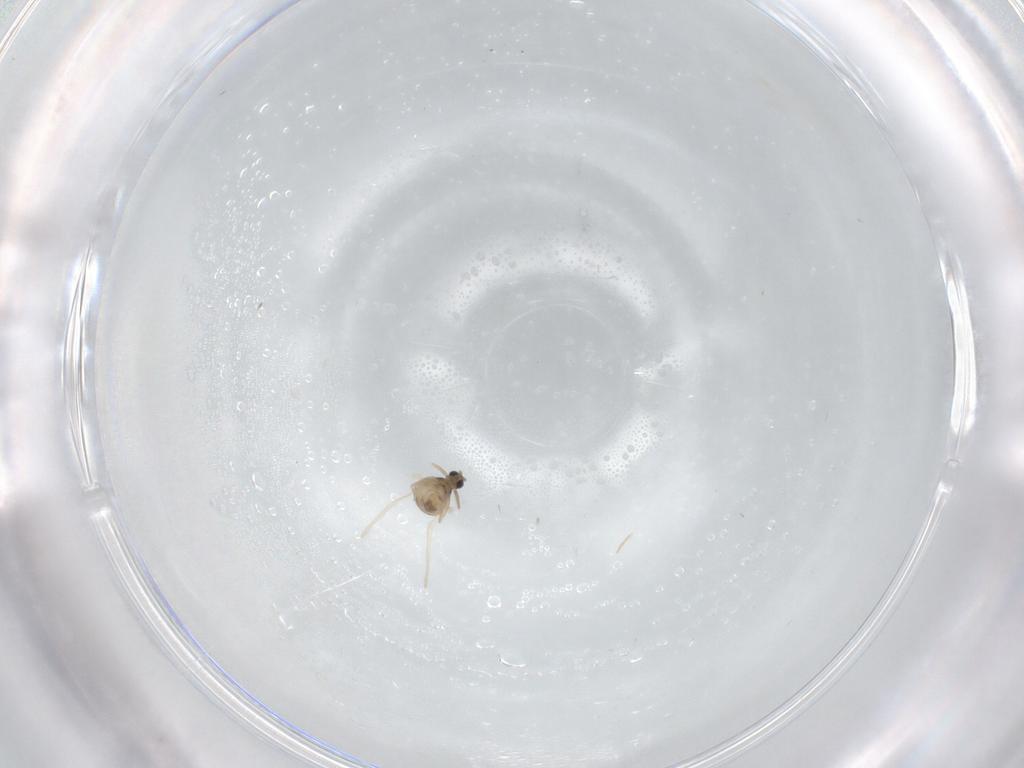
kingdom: Animalia
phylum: Arthropoda
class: Insecta
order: Diptera
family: Cecidomyiidae
